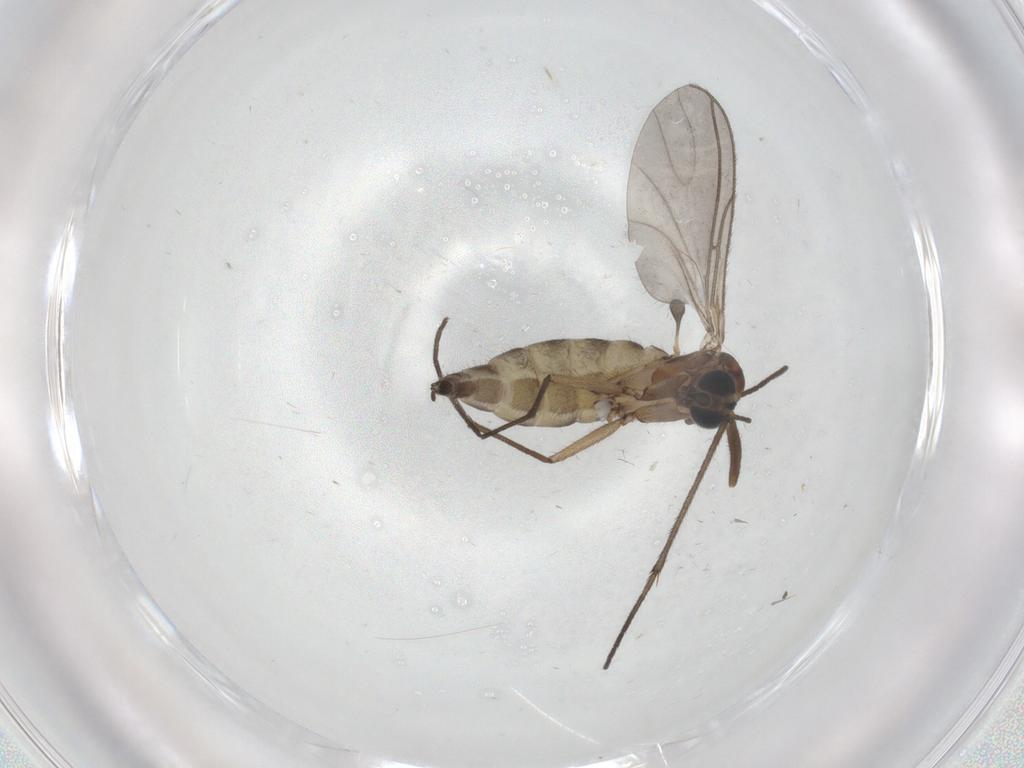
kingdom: Animalia
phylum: Arthropoda
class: Insecta
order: Diptera
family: Sciaridae
